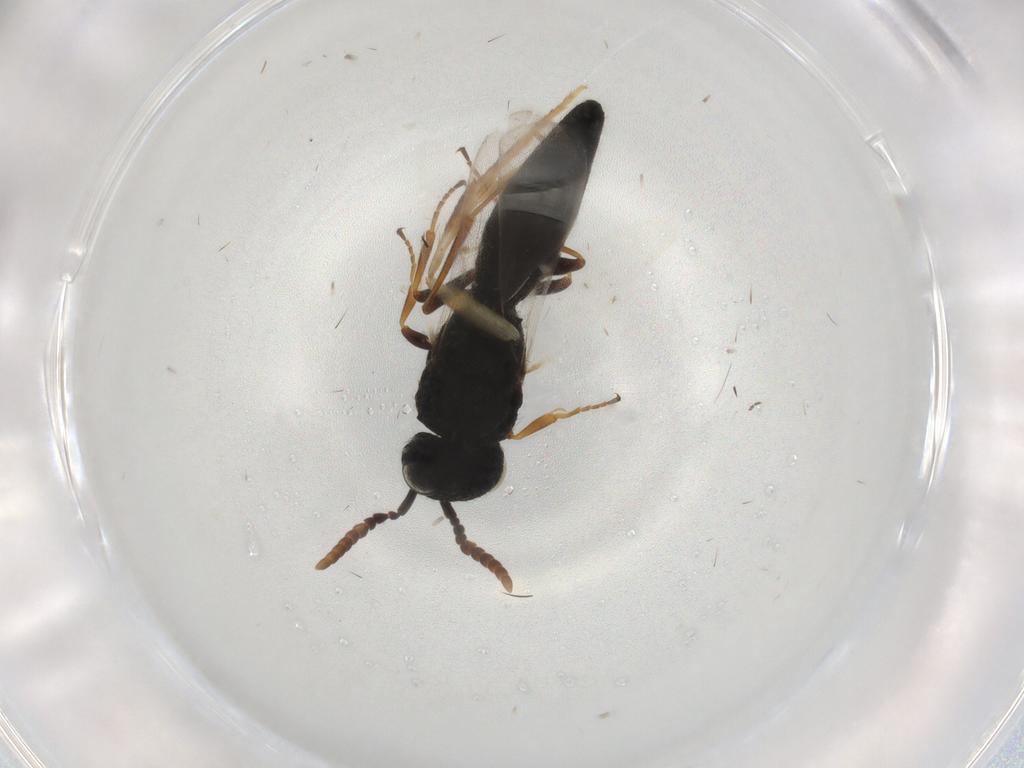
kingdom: Animalia
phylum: Arthropoda
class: Insecta
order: Hymenoptera
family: Scelionidae
